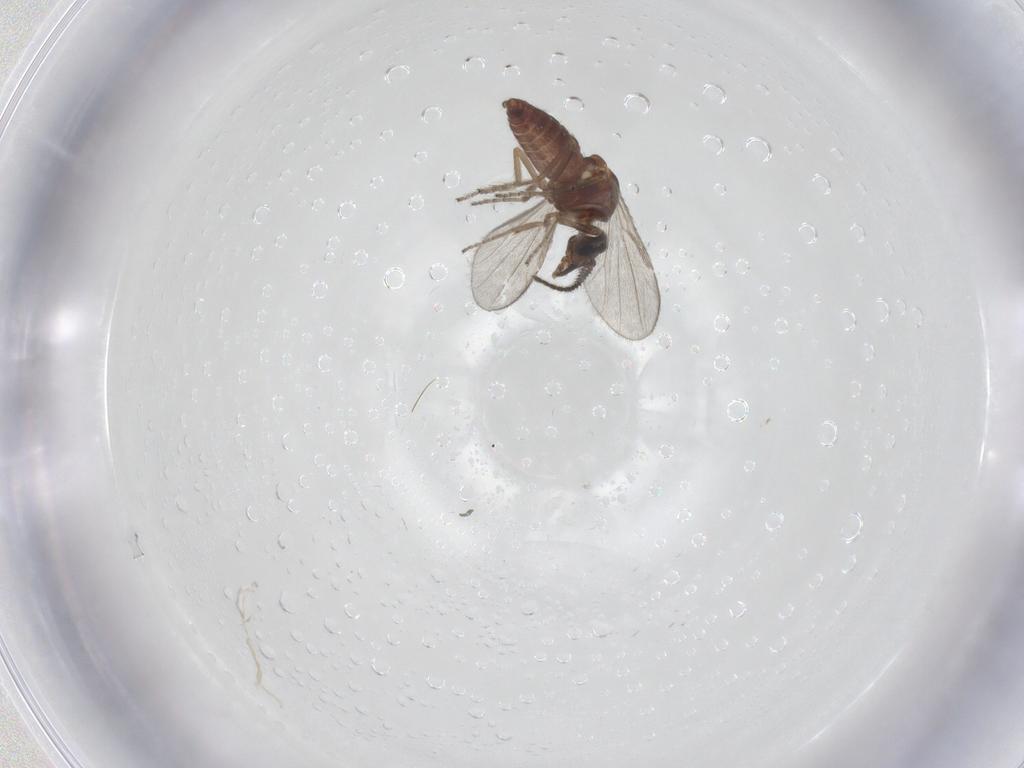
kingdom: Animalia
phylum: Arthropoda
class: Insecta
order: Diptera
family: Ceratopogonidae
